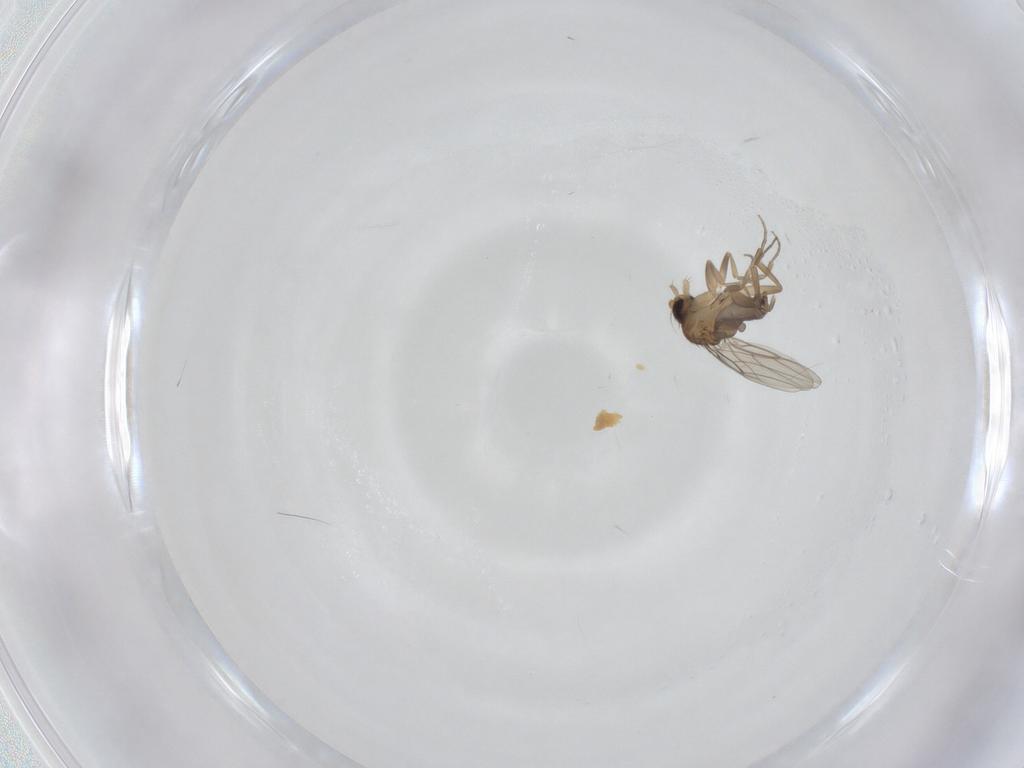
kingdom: Animalia
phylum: Arthropoda
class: Insecta
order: Diptera
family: Phoridae
